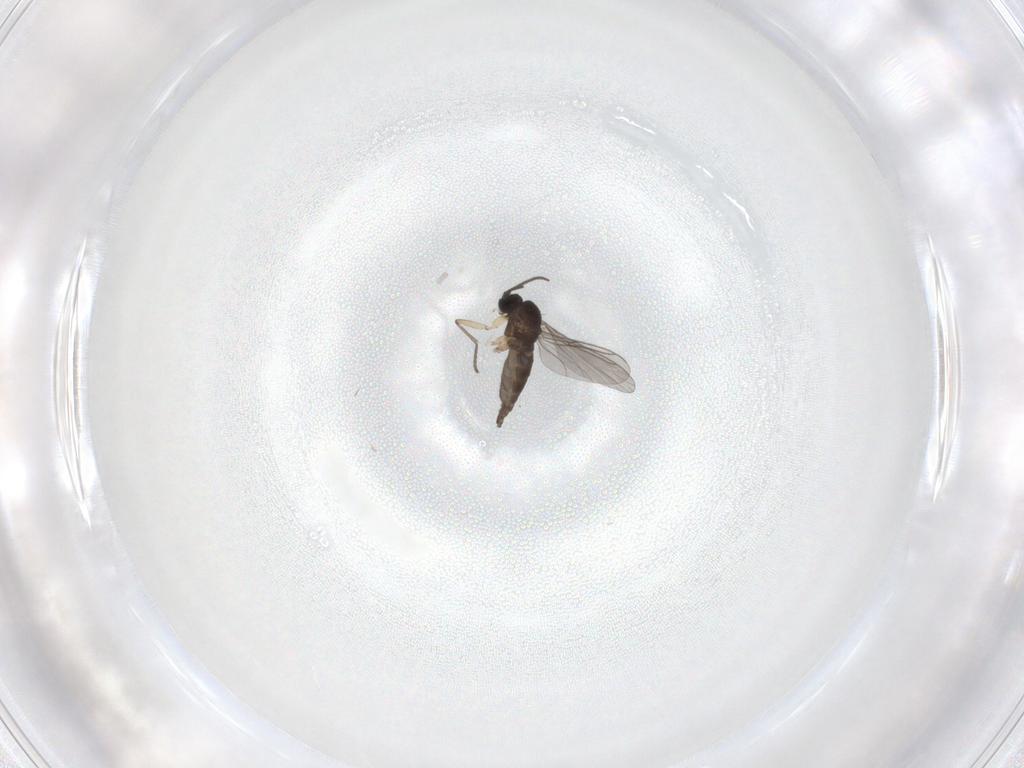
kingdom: Animalia
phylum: Arthropoda
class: Insecta
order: Diptera
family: Sciaridae
